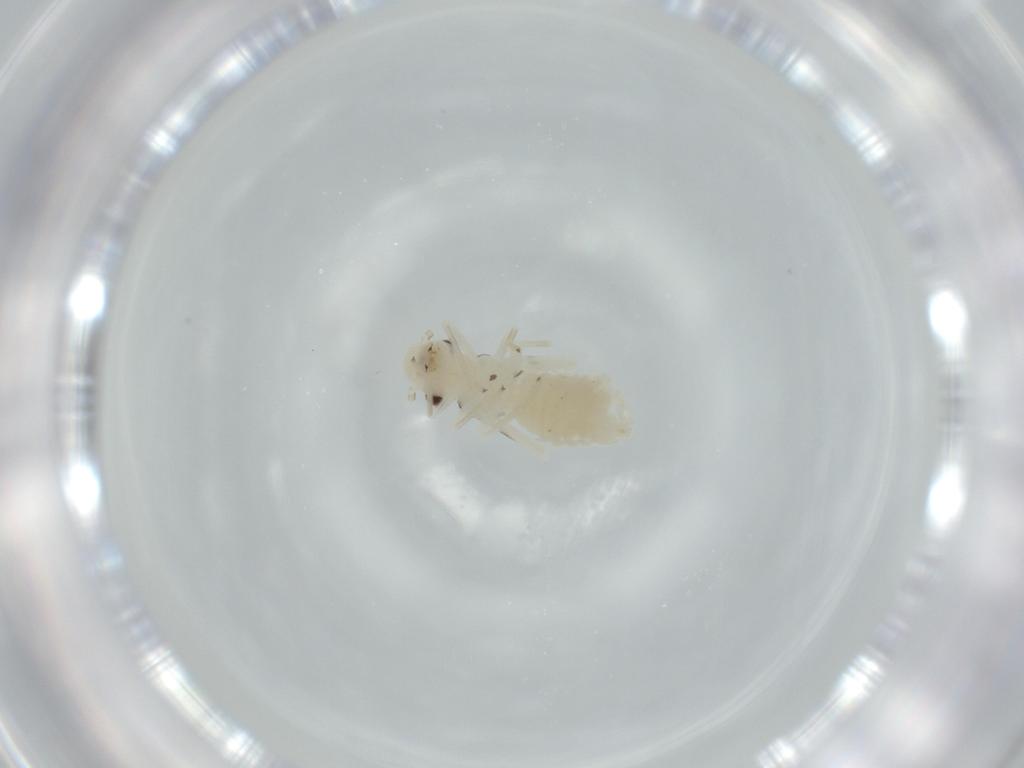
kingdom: Animalia
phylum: Arthropoda
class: Insecta
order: Psocodea
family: Caeciliusidae
